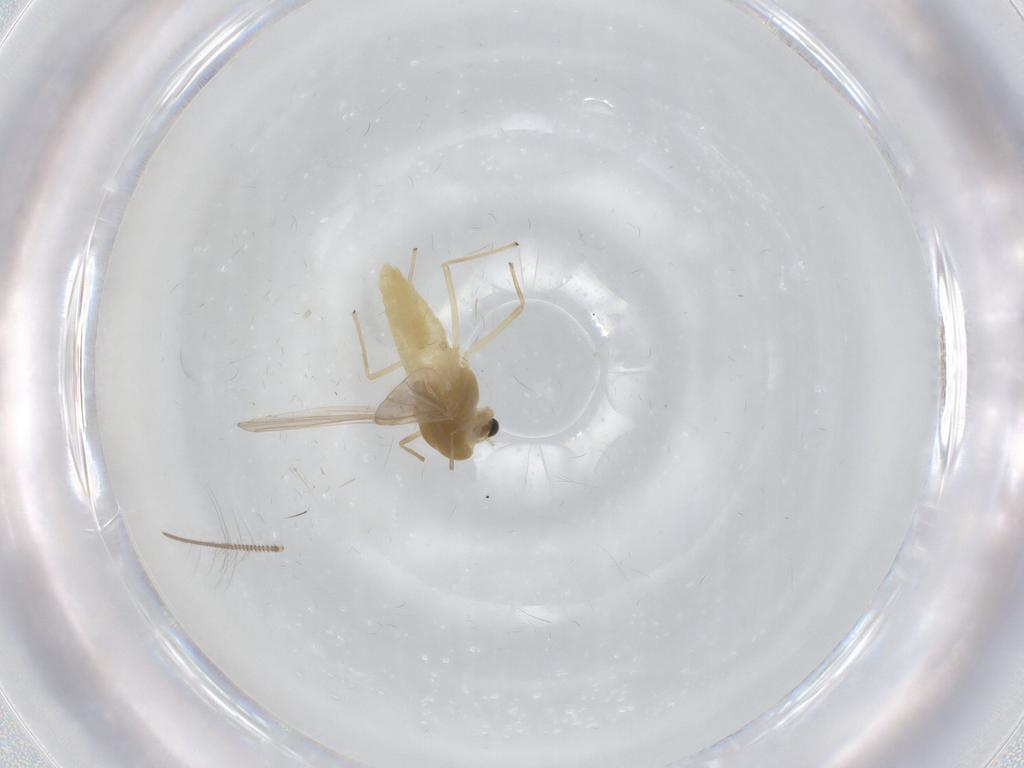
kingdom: Animalia
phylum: Arthropoda
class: Insecta
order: Diptera
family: Chironomidae
